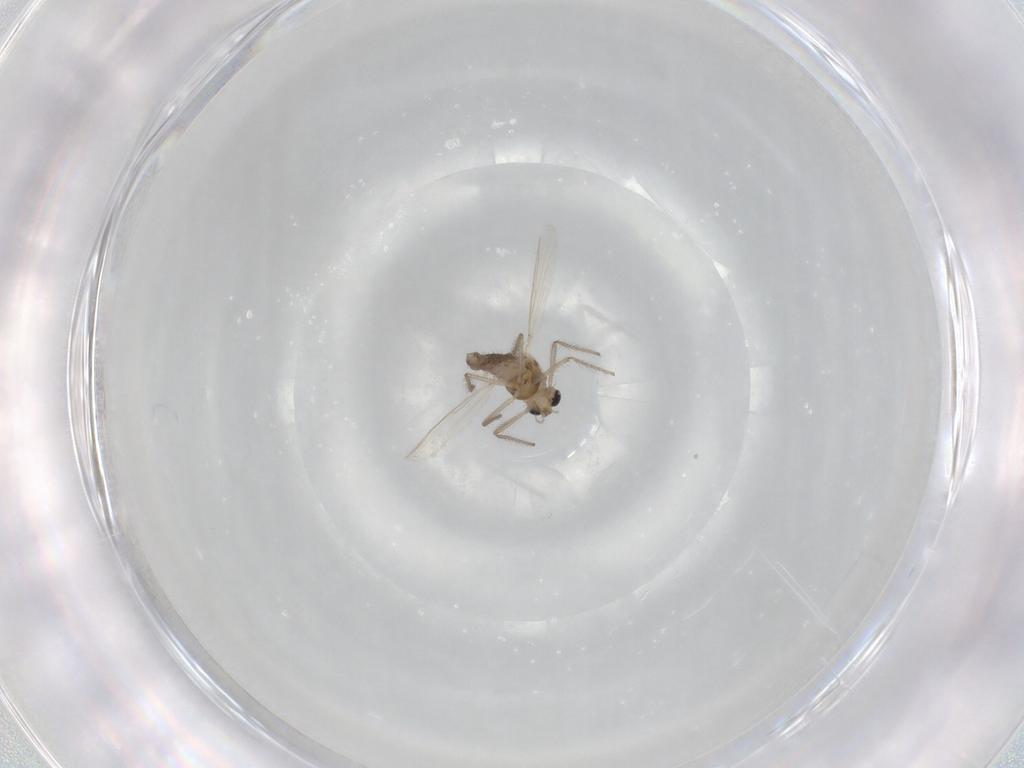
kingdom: Animalia
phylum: Arthropoda
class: Insecta
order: Diptera
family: Chironomidae
